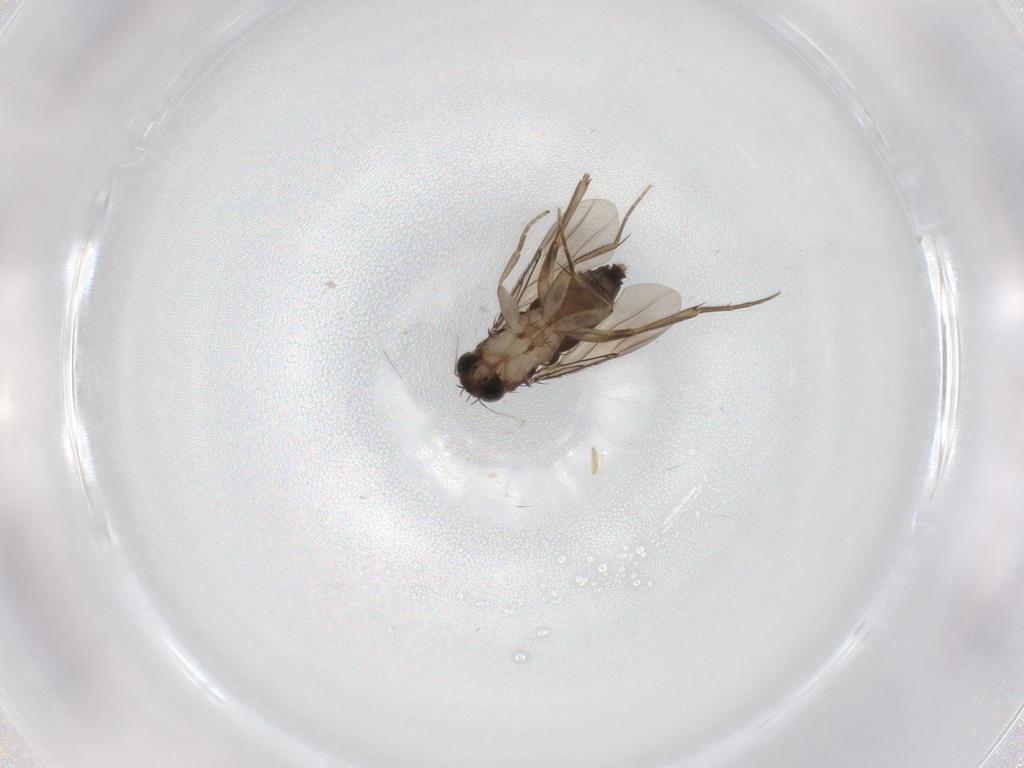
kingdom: Animalia
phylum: Arthropoda
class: Insecta
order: Diptera
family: Phoridae
